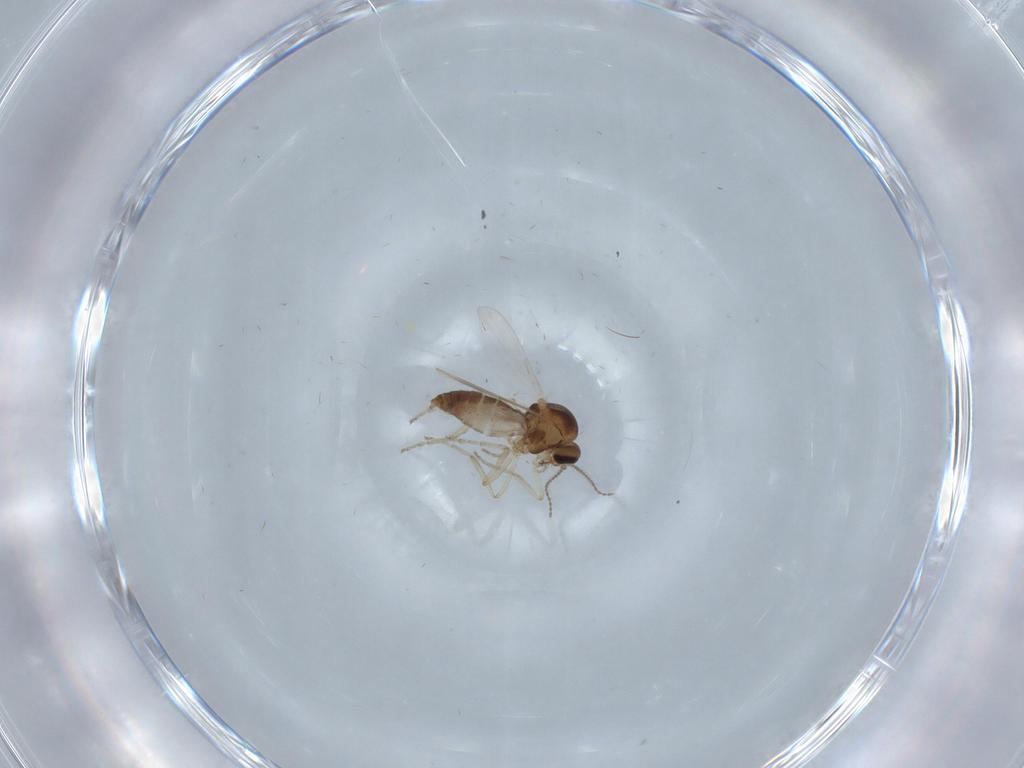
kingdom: Animalia
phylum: Arthropoda
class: Insecta
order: Diptera
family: Ceratopogonidae
